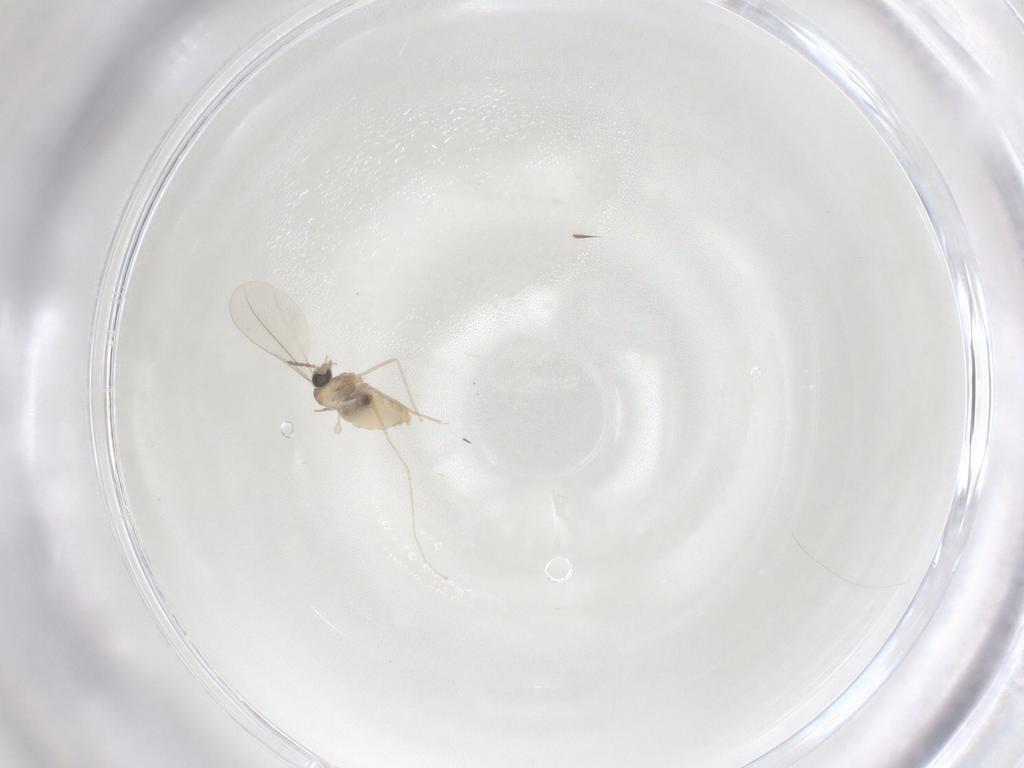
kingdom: Animalia
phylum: Arthropoda
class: Insecta
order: Diptera
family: Cecidomyiidae
